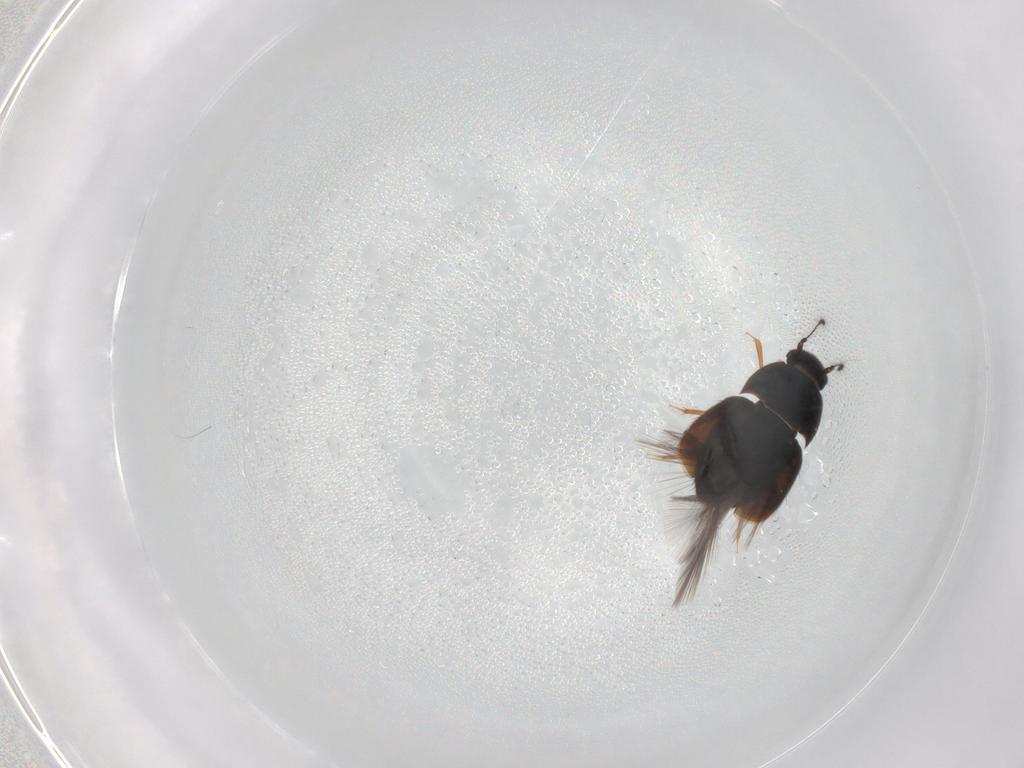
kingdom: Animalia
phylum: Arthropoda
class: Insecta
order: Coleoptera
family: Ptiliidae
